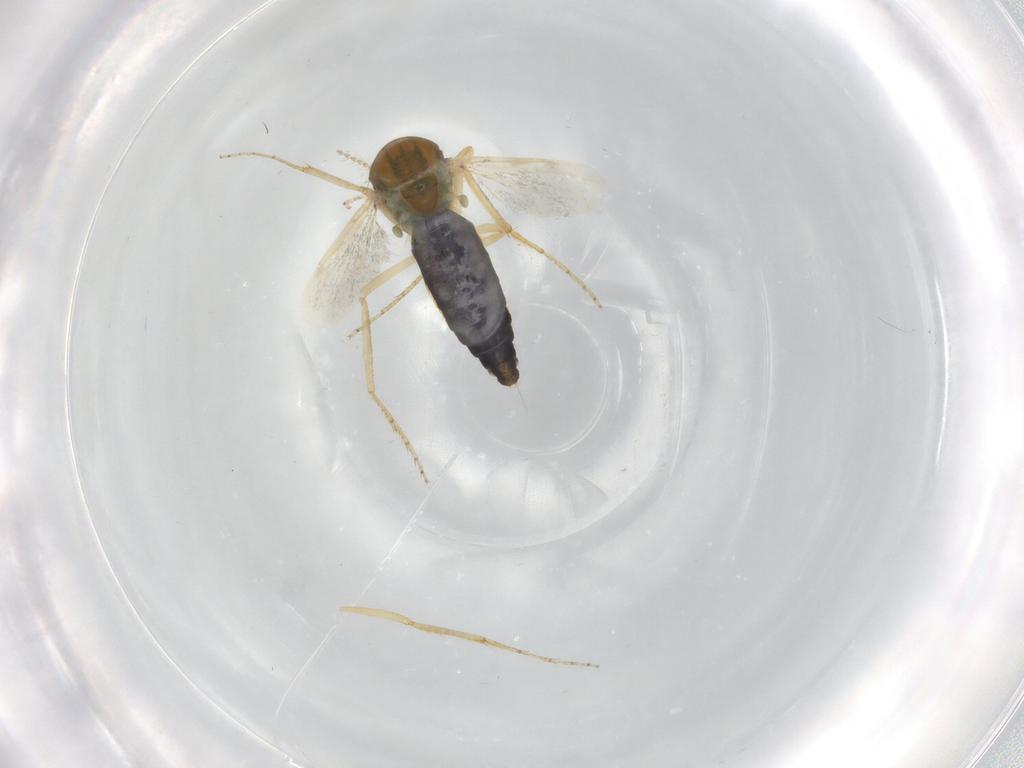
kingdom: Animalia
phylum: Arthropoda
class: Insecta
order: Diptera
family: Ceratopogonidae
